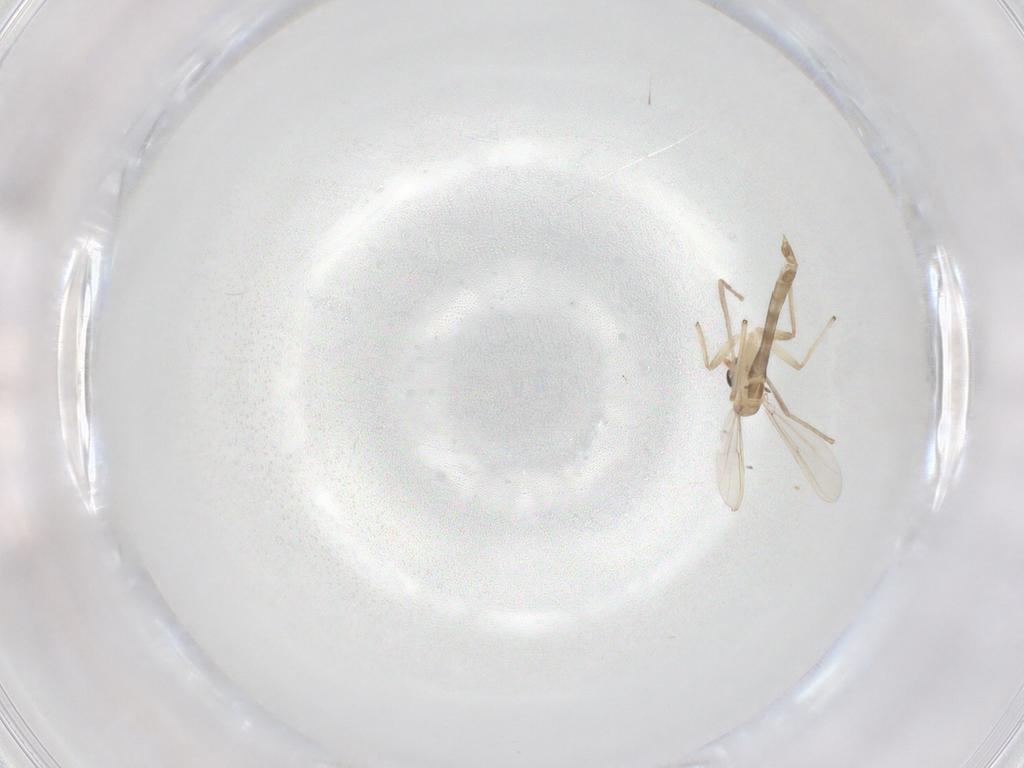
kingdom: Animalia
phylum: Arthropoda
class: Insecta
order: Diptera
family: Chironomidae
